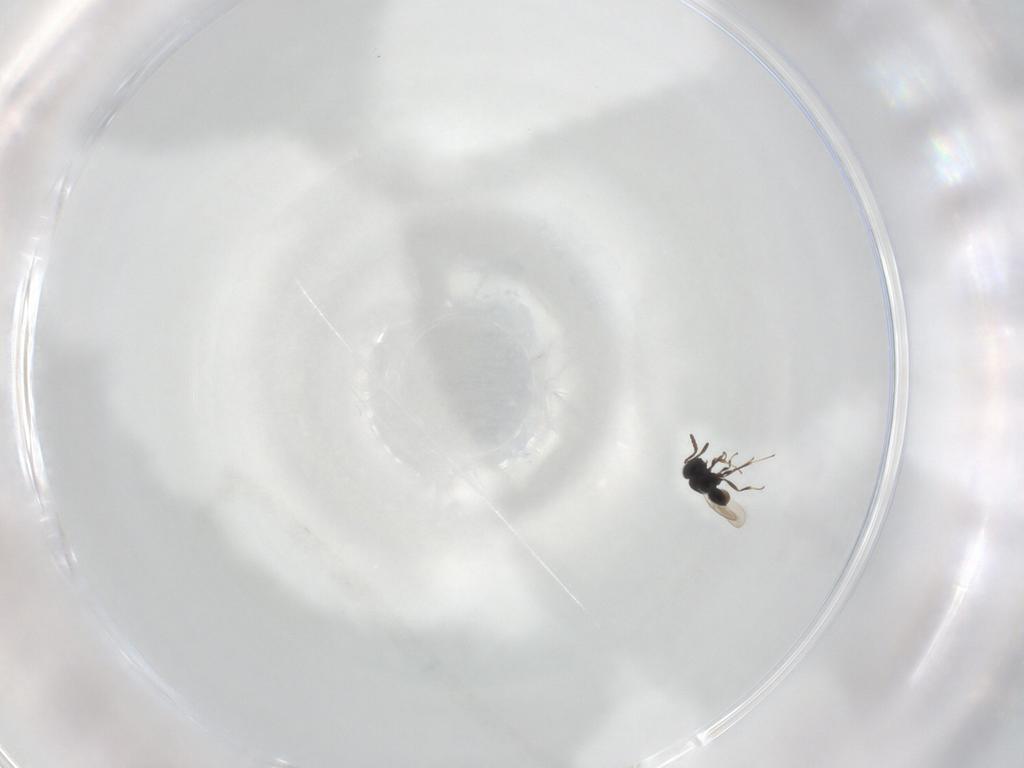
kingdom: Animalia
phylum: Arthropoda
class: Insecta
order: Hymenoptera
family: Scelionidae
